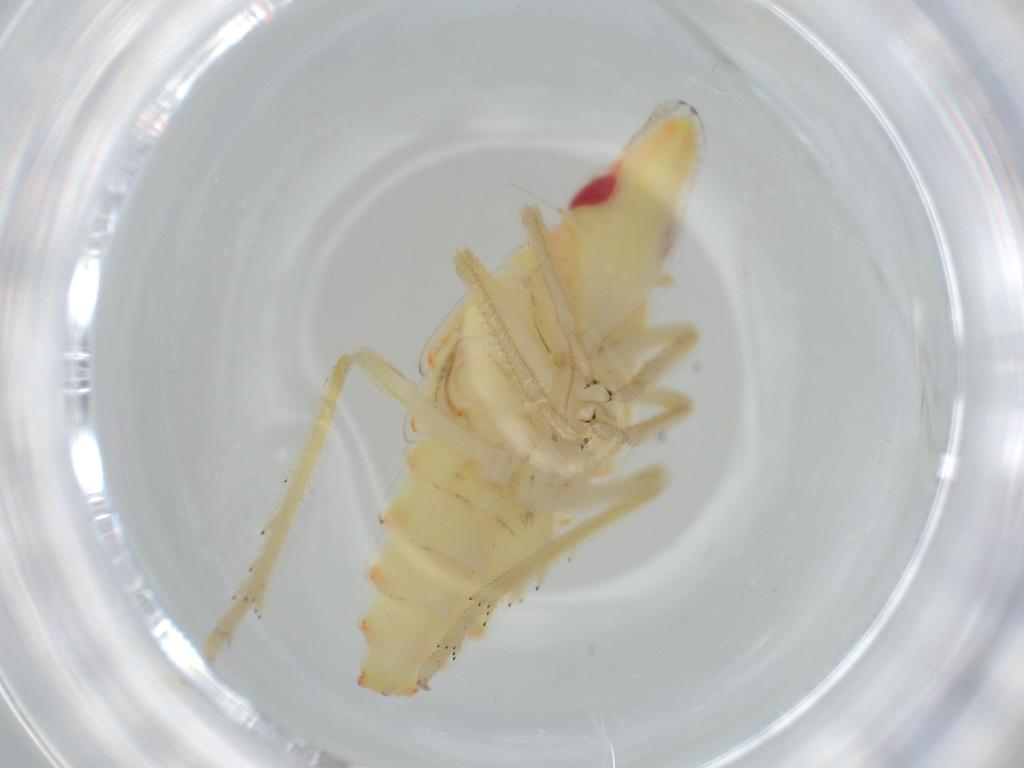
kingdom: Animalia
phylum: Arthropoda
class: Insecta
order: Hemiptera
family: Tropiduchidae
